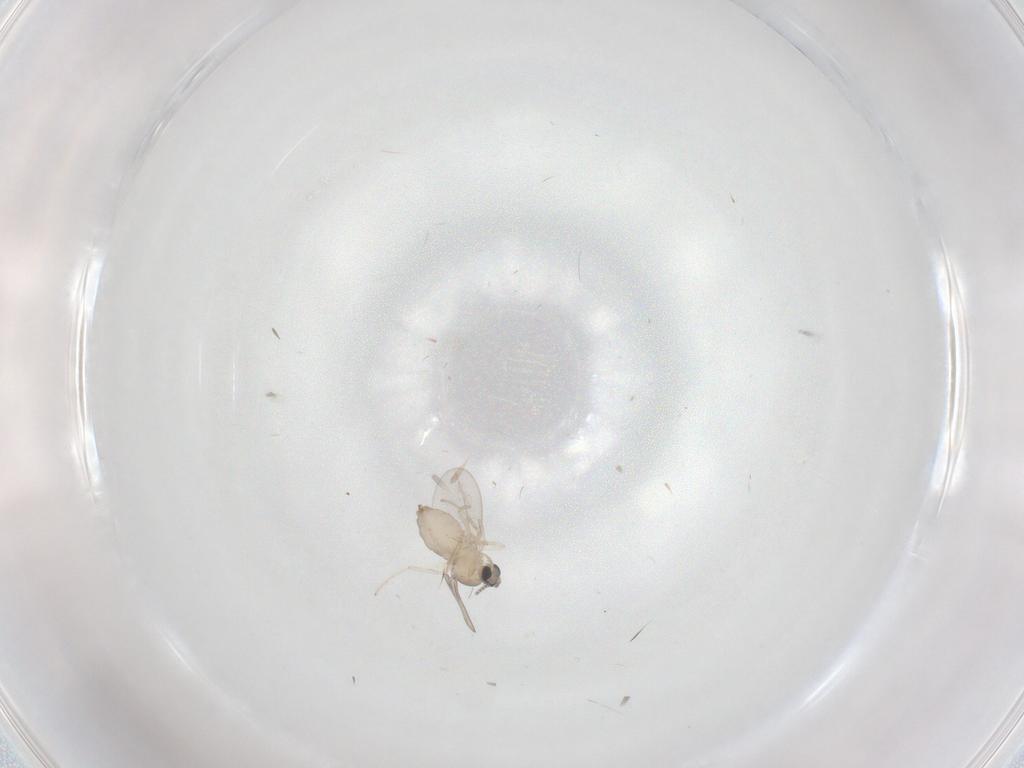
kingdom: Animalia
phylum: Arthropoda
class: Insecta
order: Diptera
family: Cecidomyiidae
